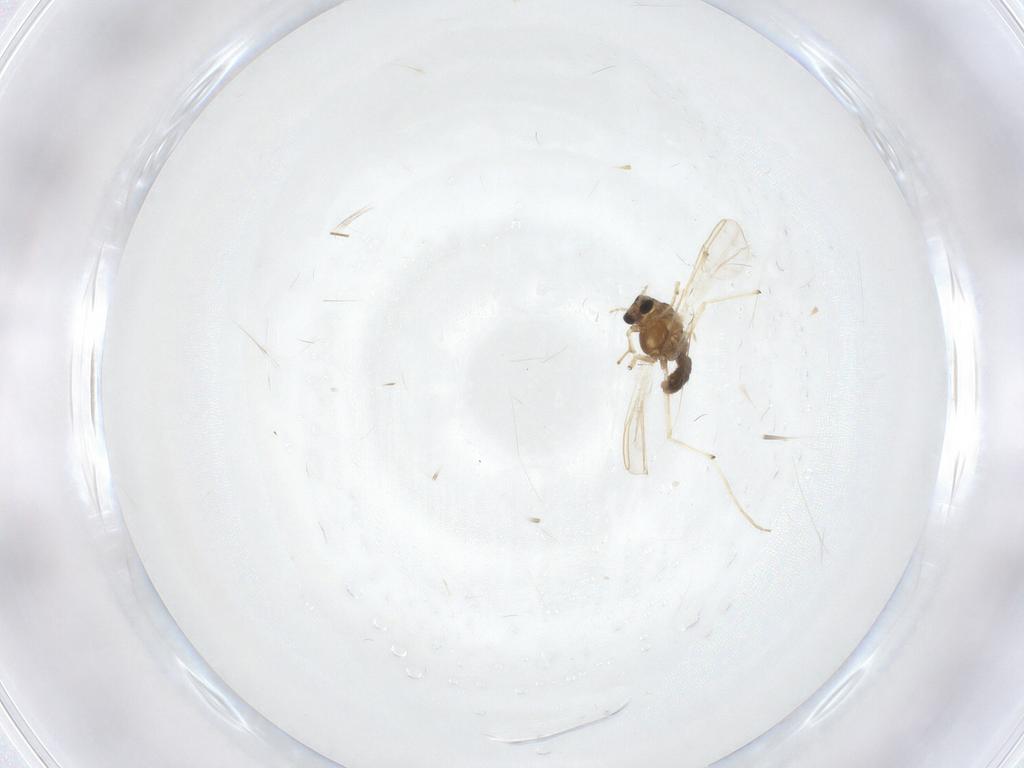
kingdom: Animalia
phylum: Arthropoda
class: Insecta
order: Diptera
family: Chironomidae
